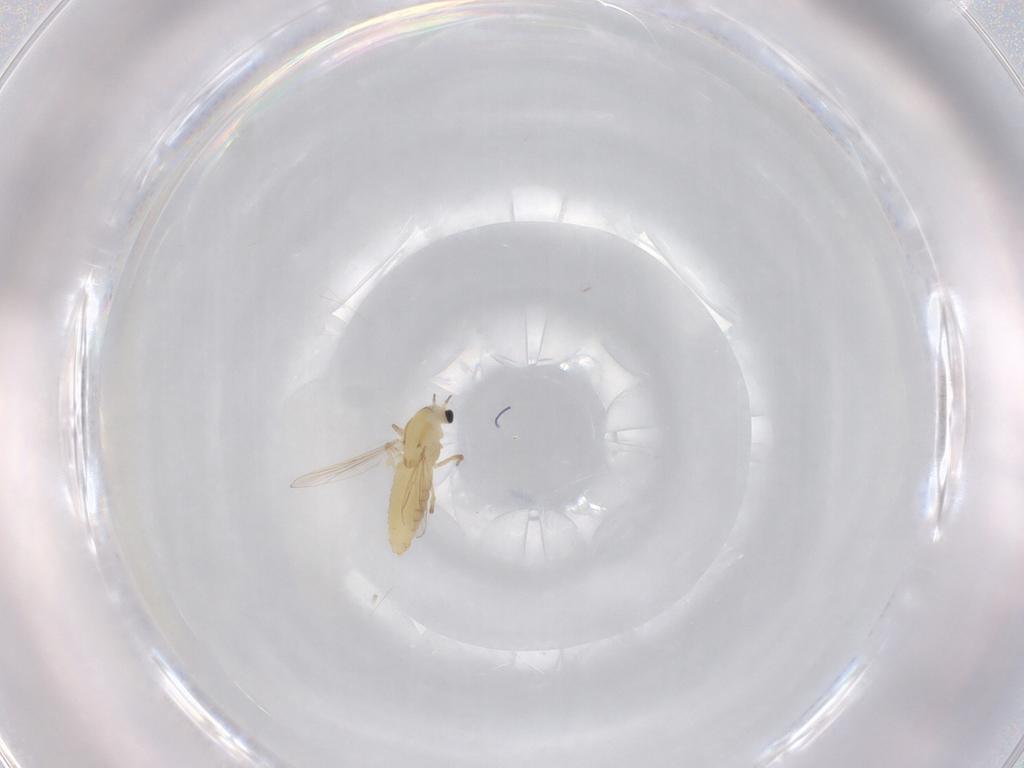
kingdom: Animalia
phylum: Arthropoda
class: Insecta
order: Diptera
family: Chironomidae
